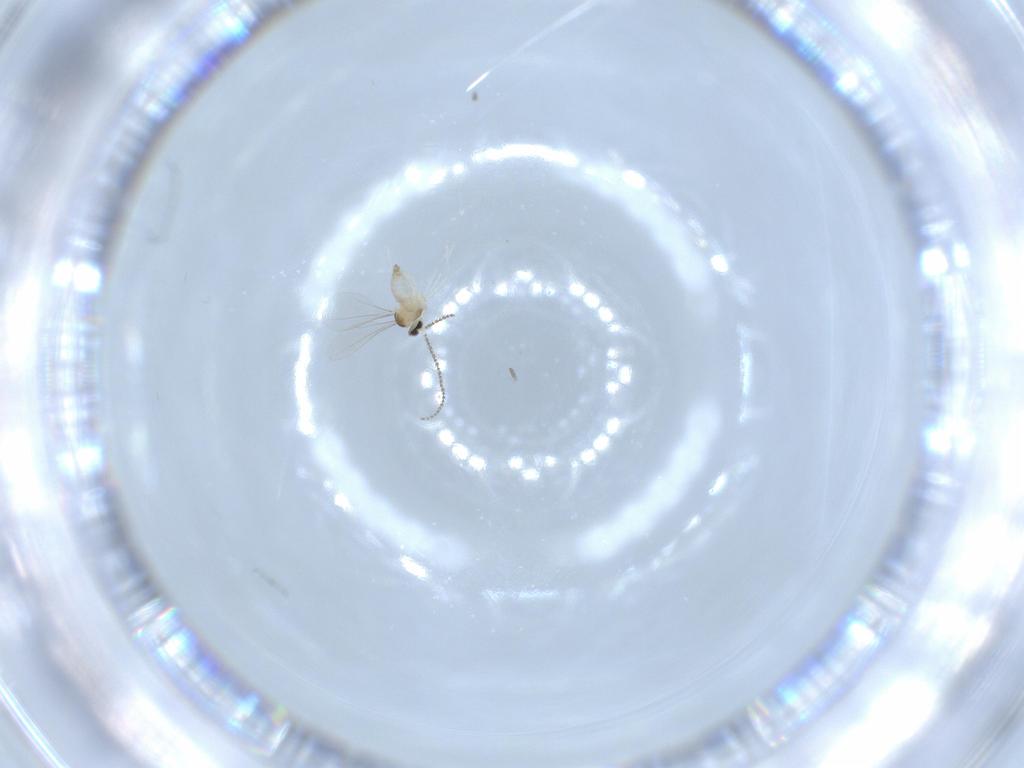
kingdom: Animalia
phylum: Arthropoda
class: Insecta
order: Diptera
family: Cecidomyiidae
